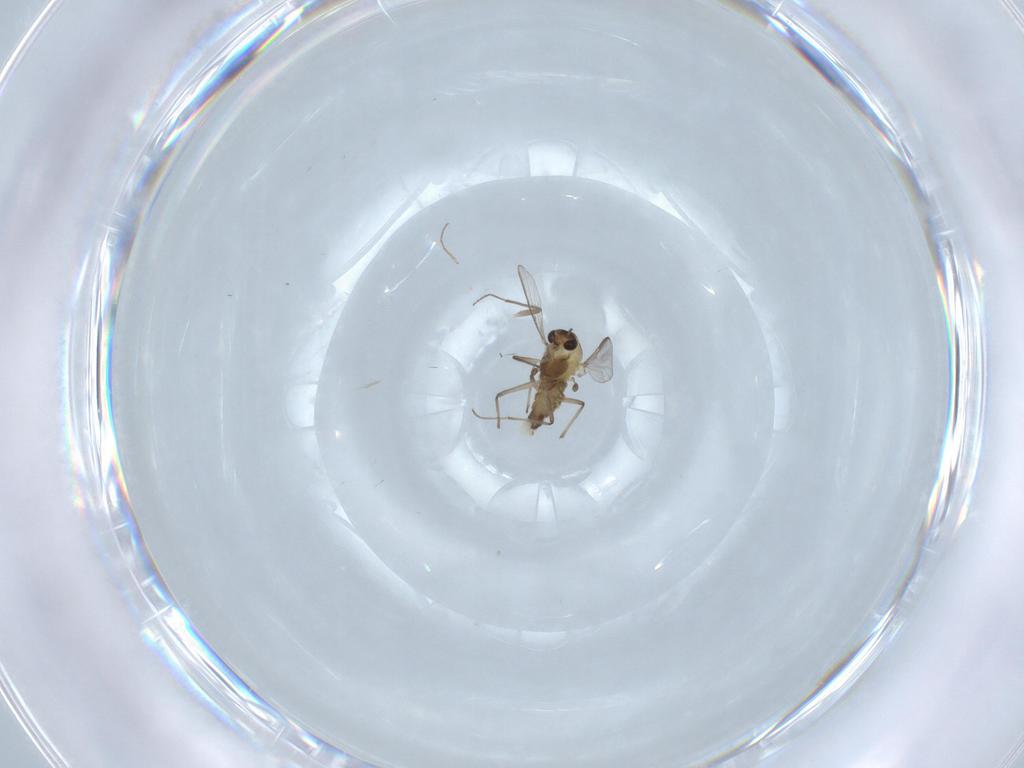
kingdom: Animalia
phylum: Arthropoda
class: Insecta
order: Diptera
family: Chironomidae
